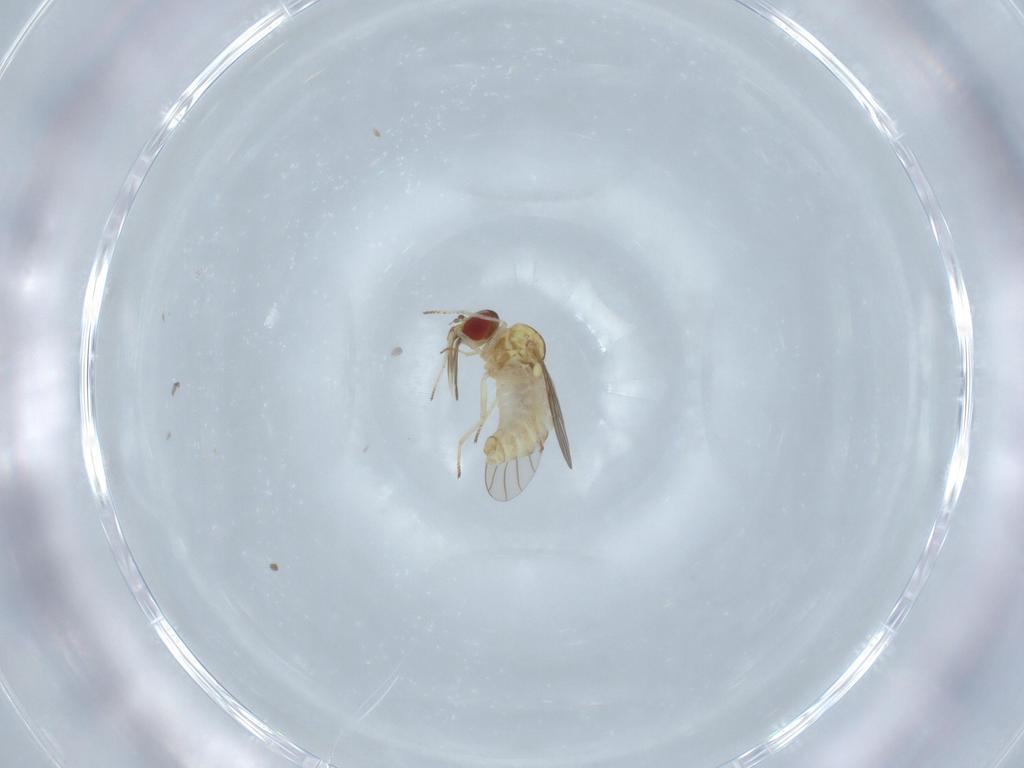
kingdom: Animalia
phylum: Arthropoda
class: Insecta
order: Diptera
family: Bombyliidae
